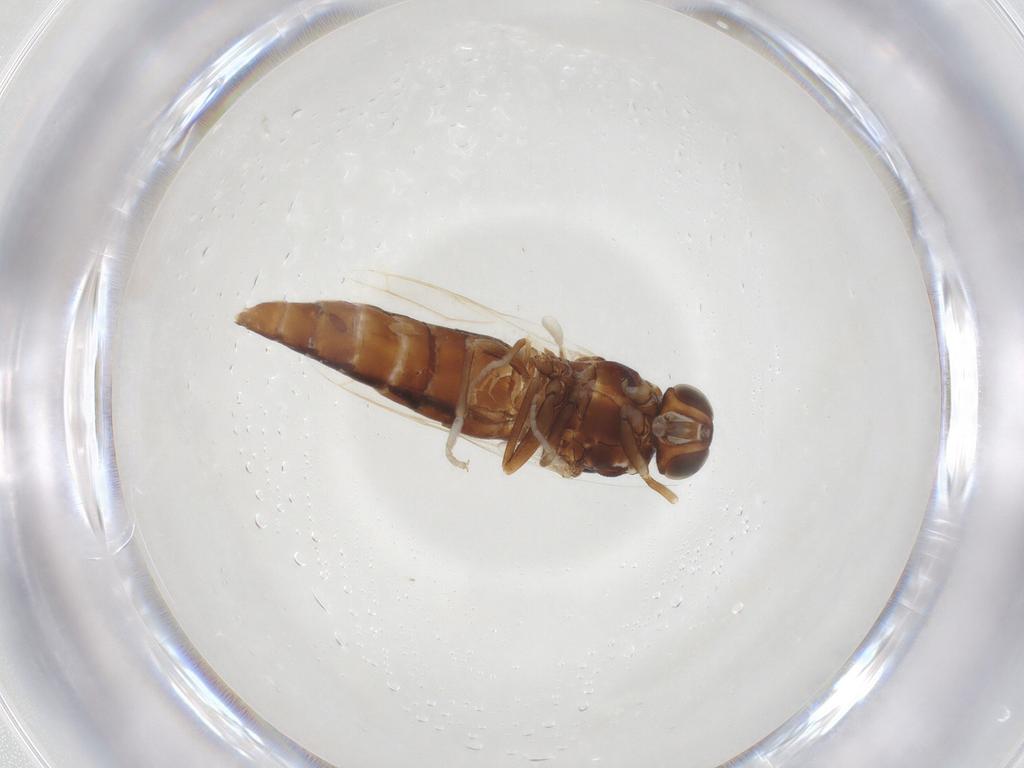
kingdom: Animalia
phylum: Arthropoda
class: Insecta
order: Diptera
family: Scenopinidae
